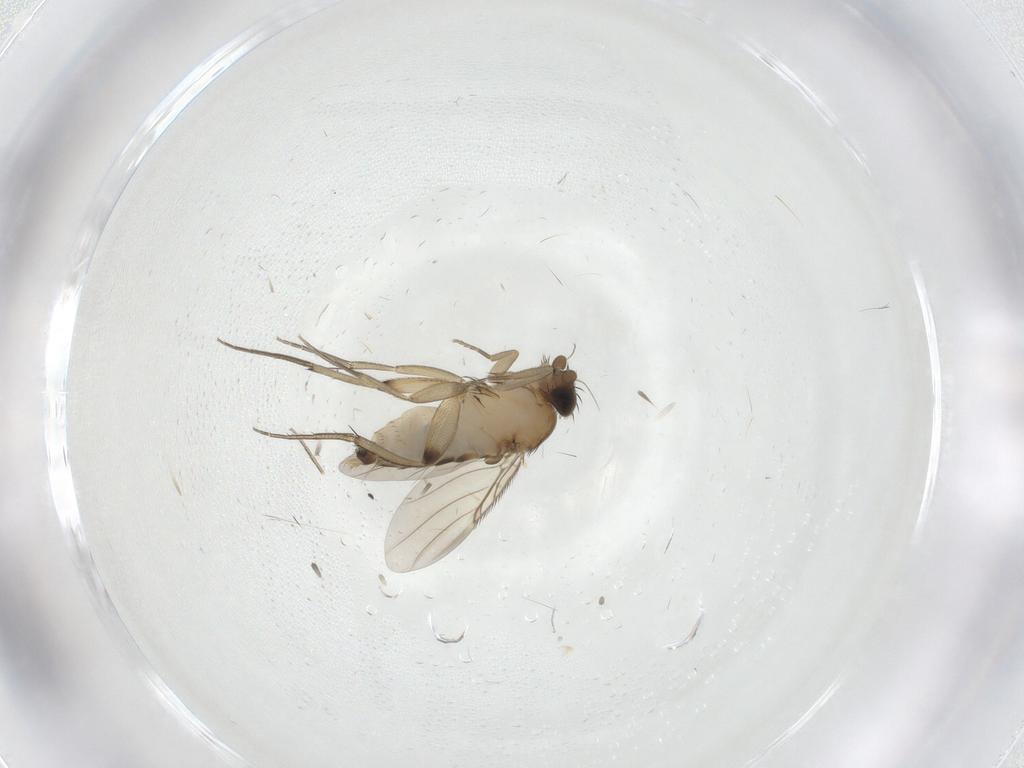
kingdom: Animalia
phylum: Arthropoda
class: Insecta
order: Diptera
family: Phoridae
